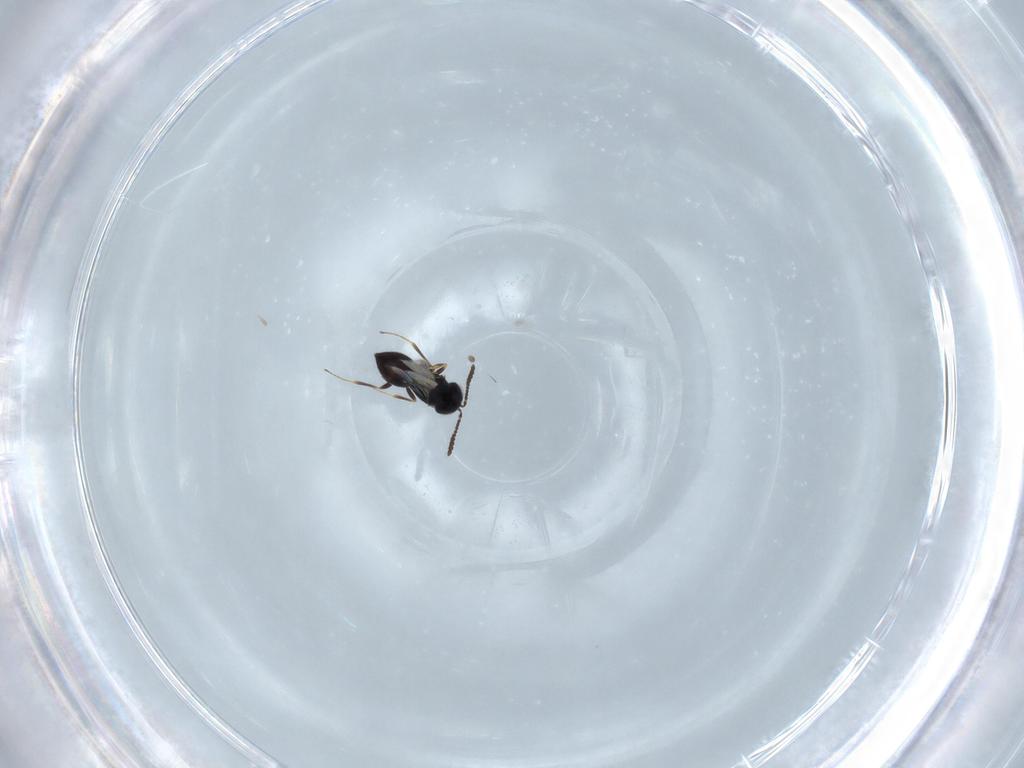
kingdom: Animalia
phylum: Arthropoda
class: Insecta
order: Hymenoptera
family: Scelionidae
